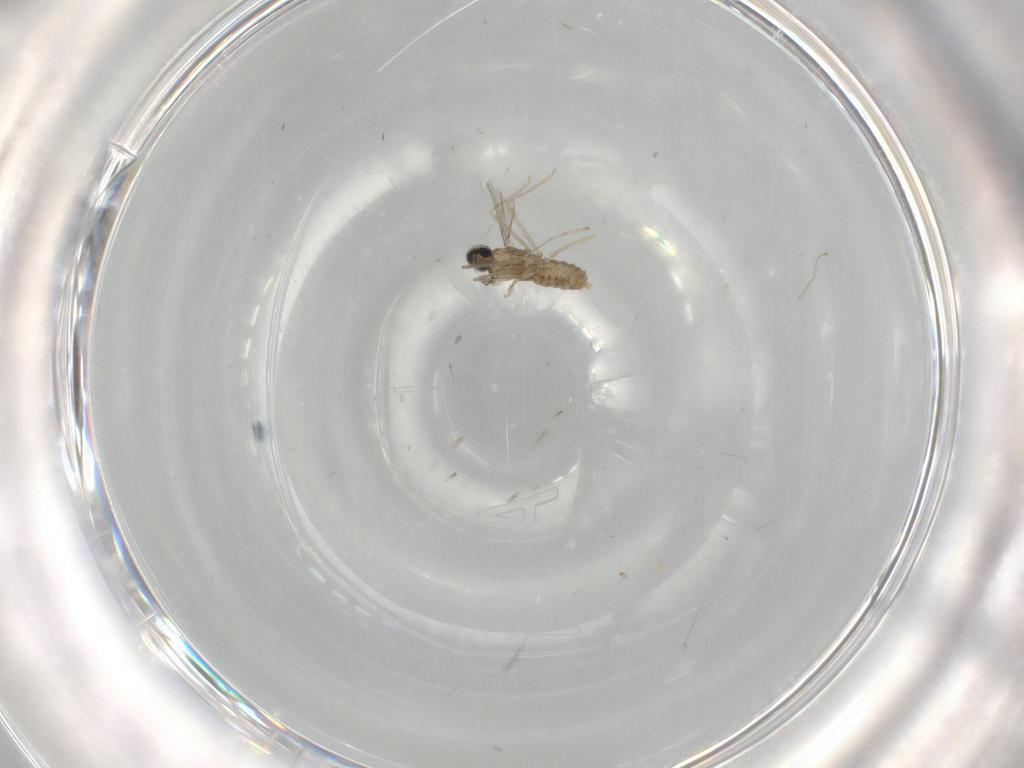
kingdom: Animalia
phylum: Arthropoda
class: Insecta
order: Diptera
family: Cecidomyiidae
